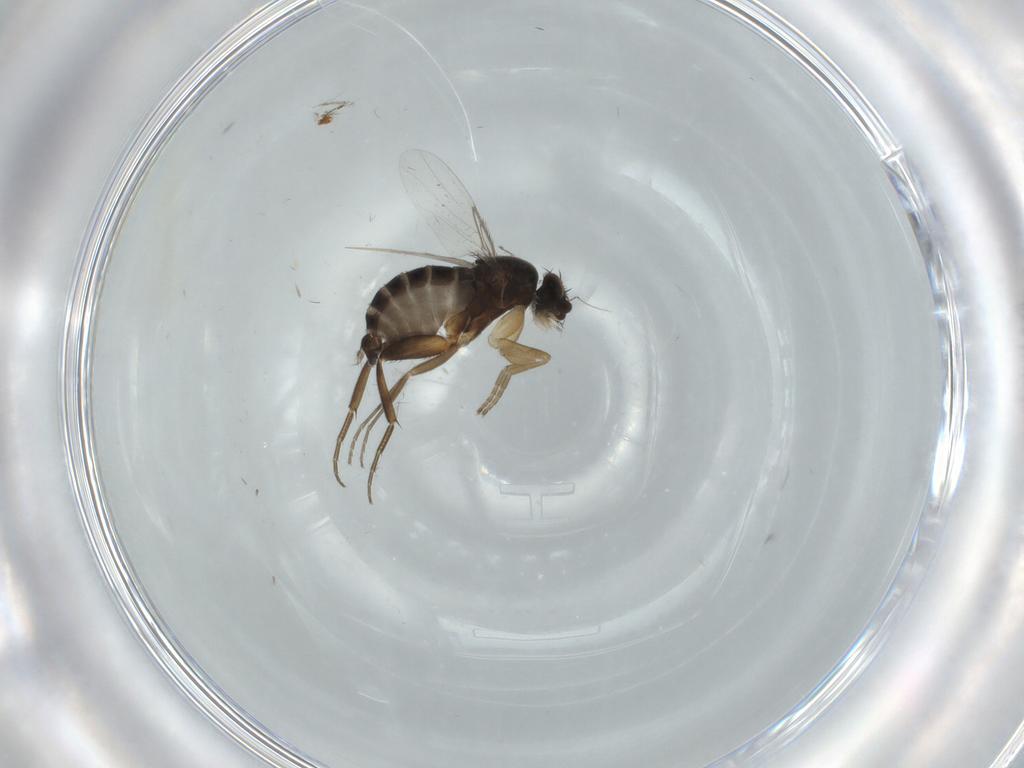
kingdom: Animalia
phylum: Arthropoda
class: Insecta
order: Diptera
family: Phoridae
